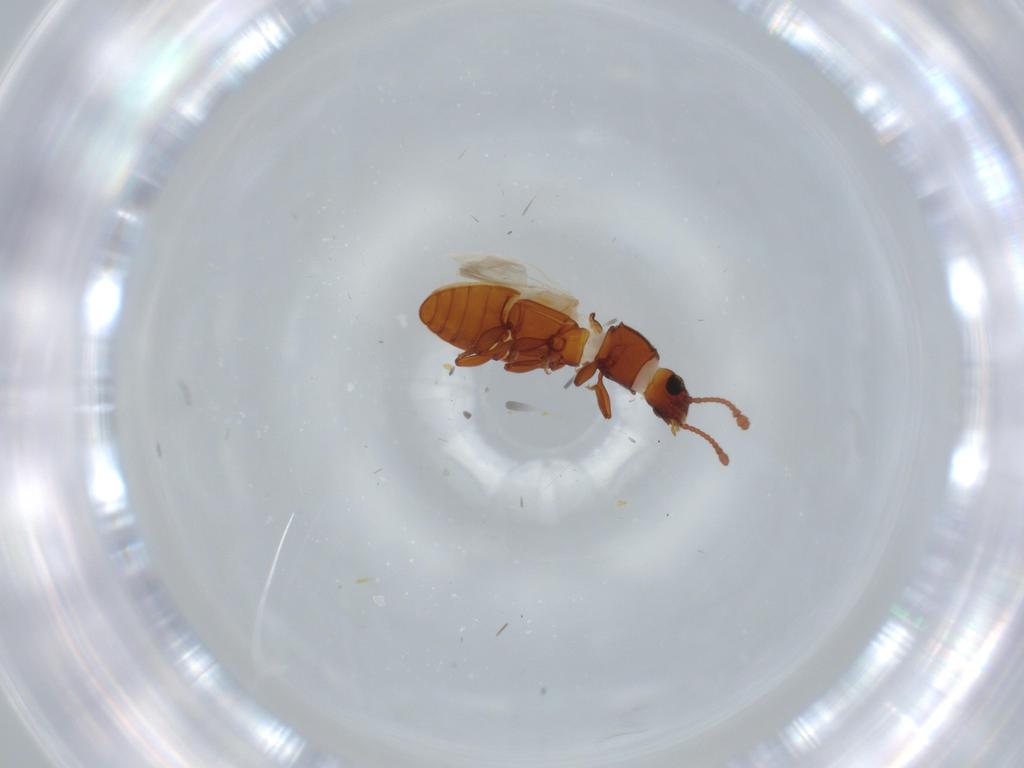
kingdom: Animalia
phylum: Arthropoda
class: Insecta
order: Coleoptera
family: Silvanidae
